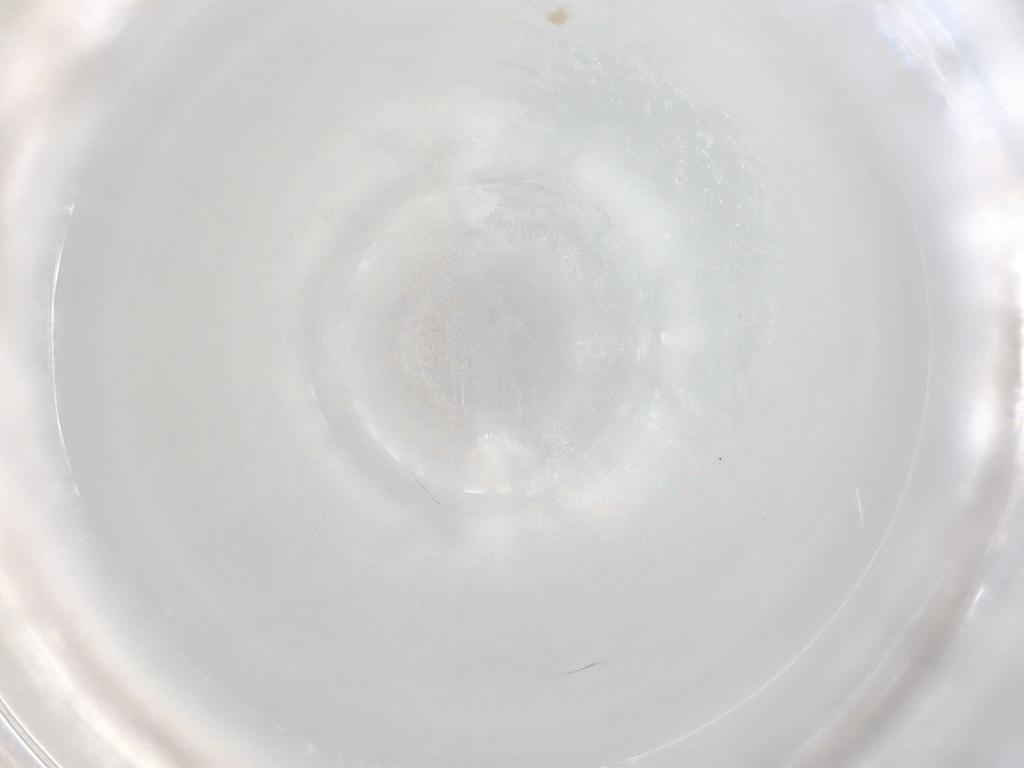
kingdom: Animalia
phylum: Arthropoda
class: Arachnida
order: Trombidiformes
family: Eupodidae
